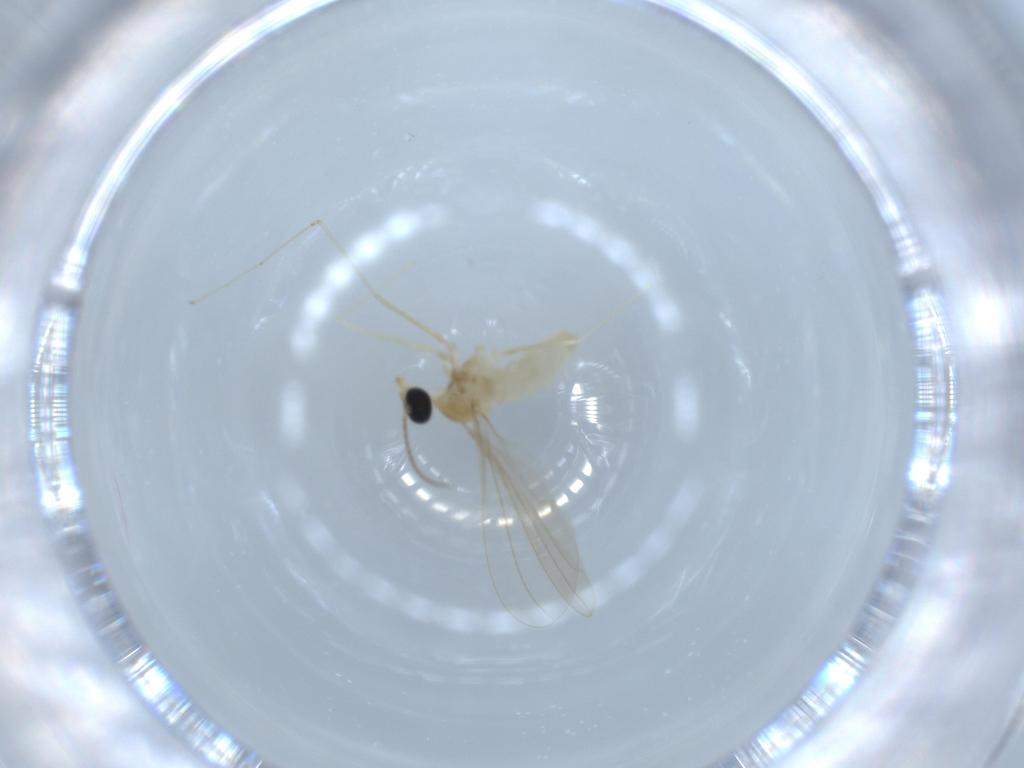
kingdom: Animalia
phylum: Arthropoda
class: Insecta
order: Diptera
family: Cecidomyiidae
